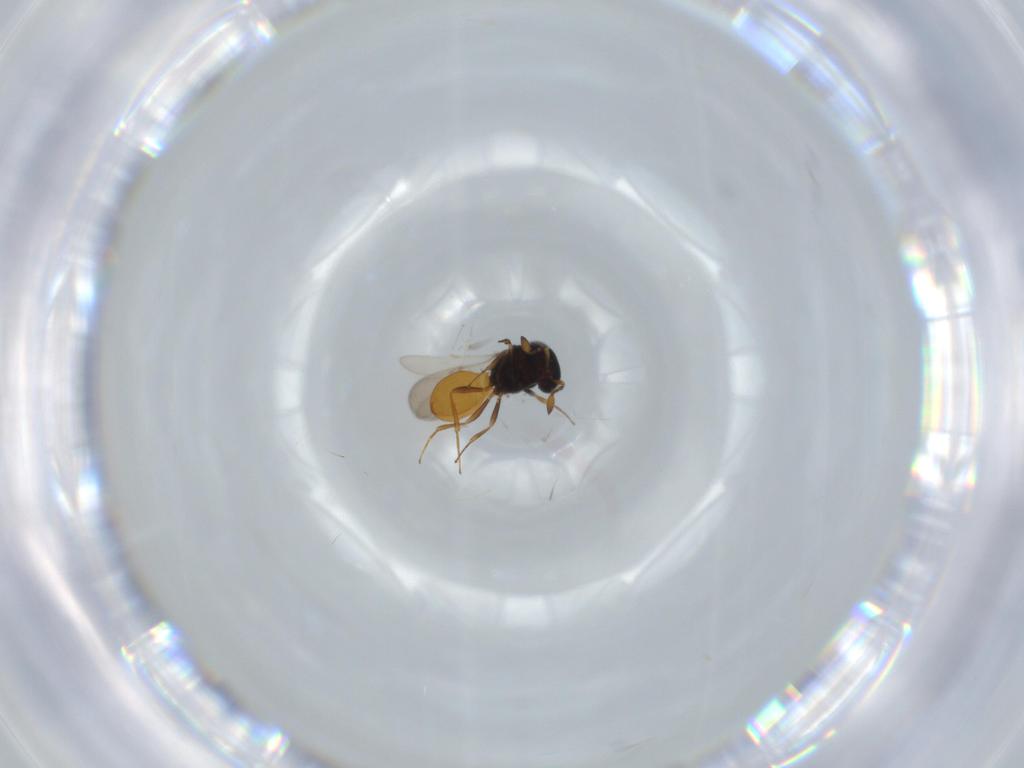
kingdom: Animalia
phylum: Arthropoda
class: Insecta
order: Hymenoptera
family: Scelionidae
